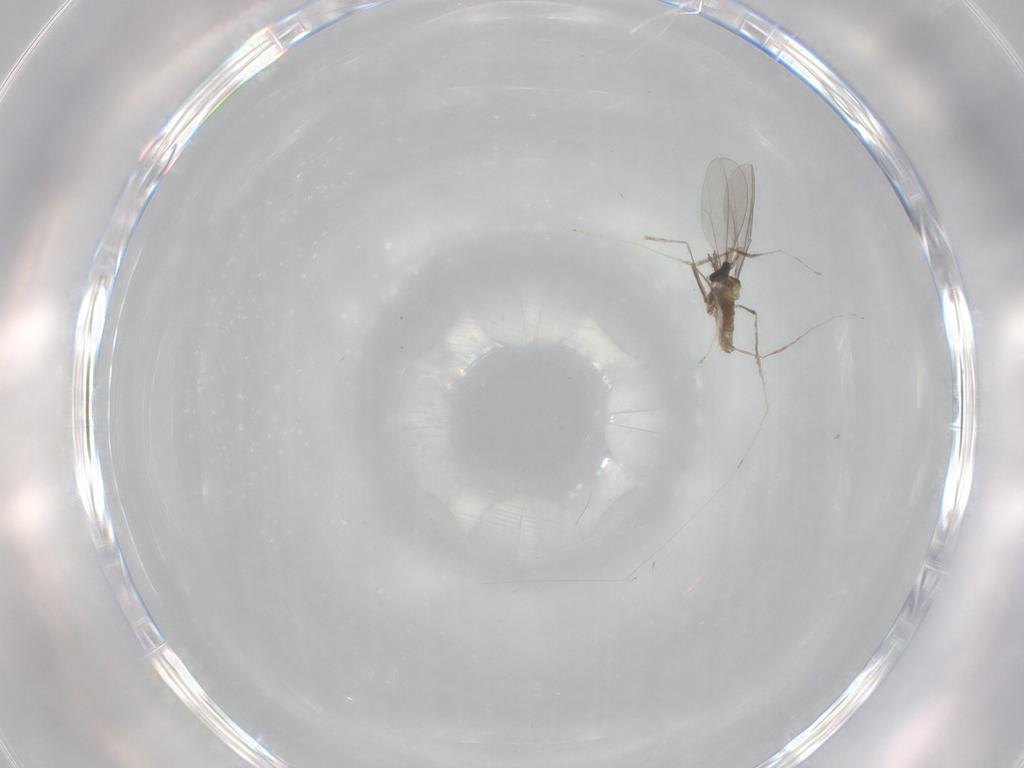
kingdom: Animalia
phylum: Arthropoda
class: Insecta
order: Diptera
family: Cecidomyiidae
